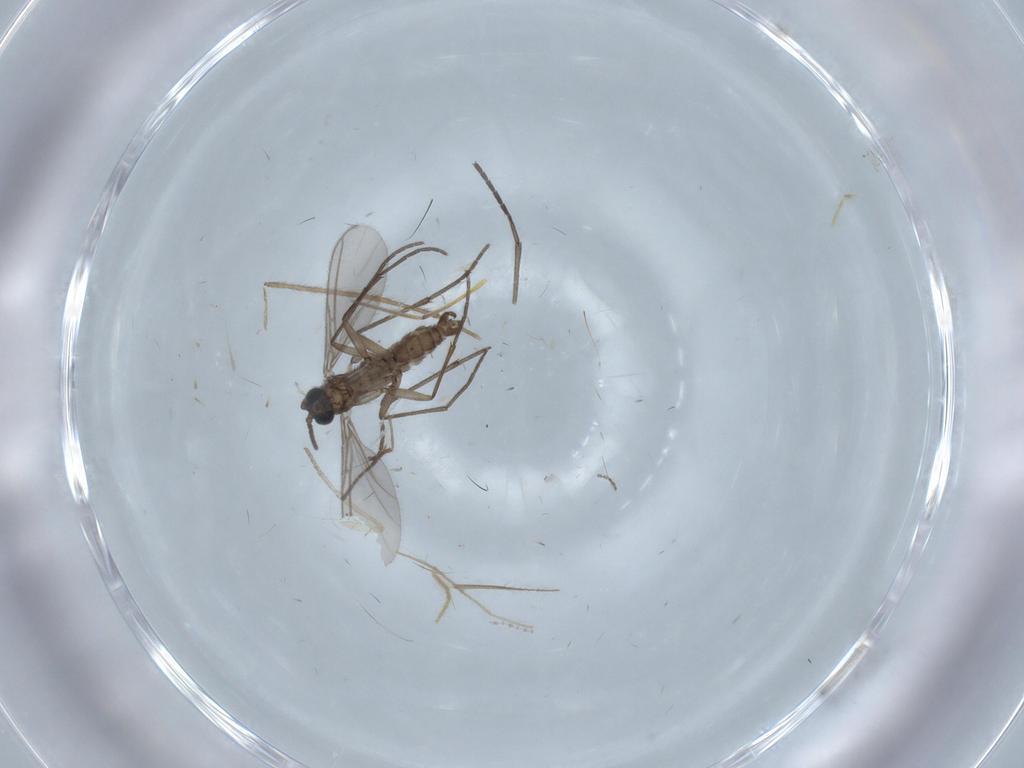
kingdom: Animalia
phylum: Arthropoda
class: Insecta
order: Diptera
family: Sciaridae
